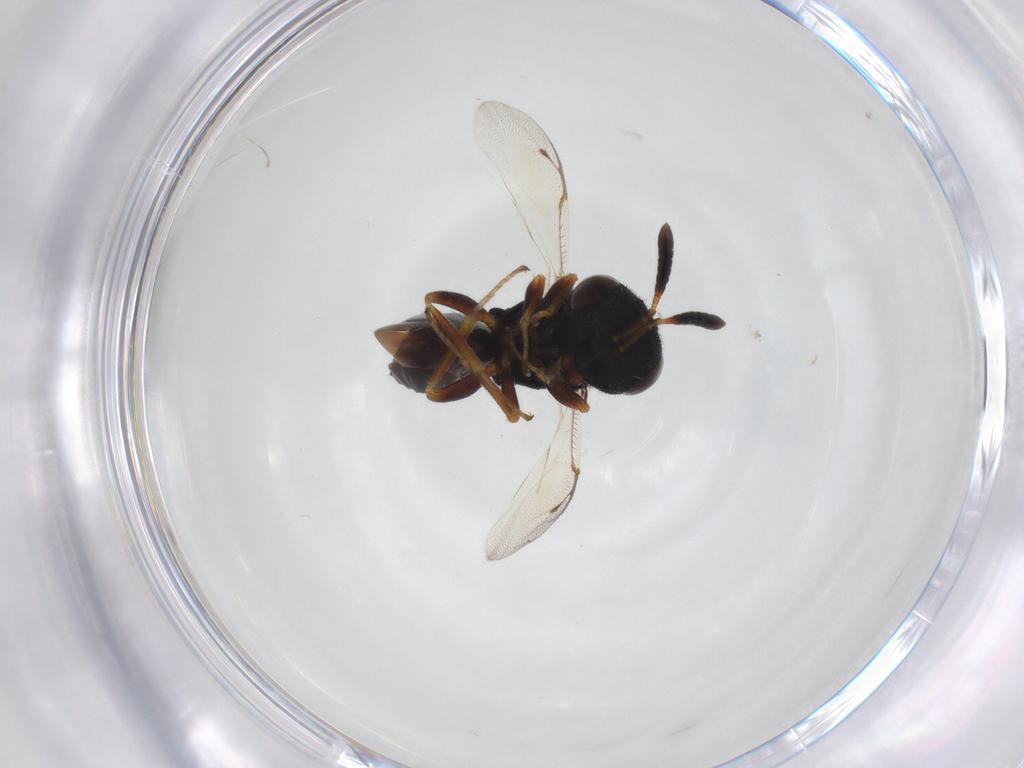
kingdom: Animalia
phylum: Arthropoda
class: Insecta
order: Hymenoptera
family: Pteromalidae
